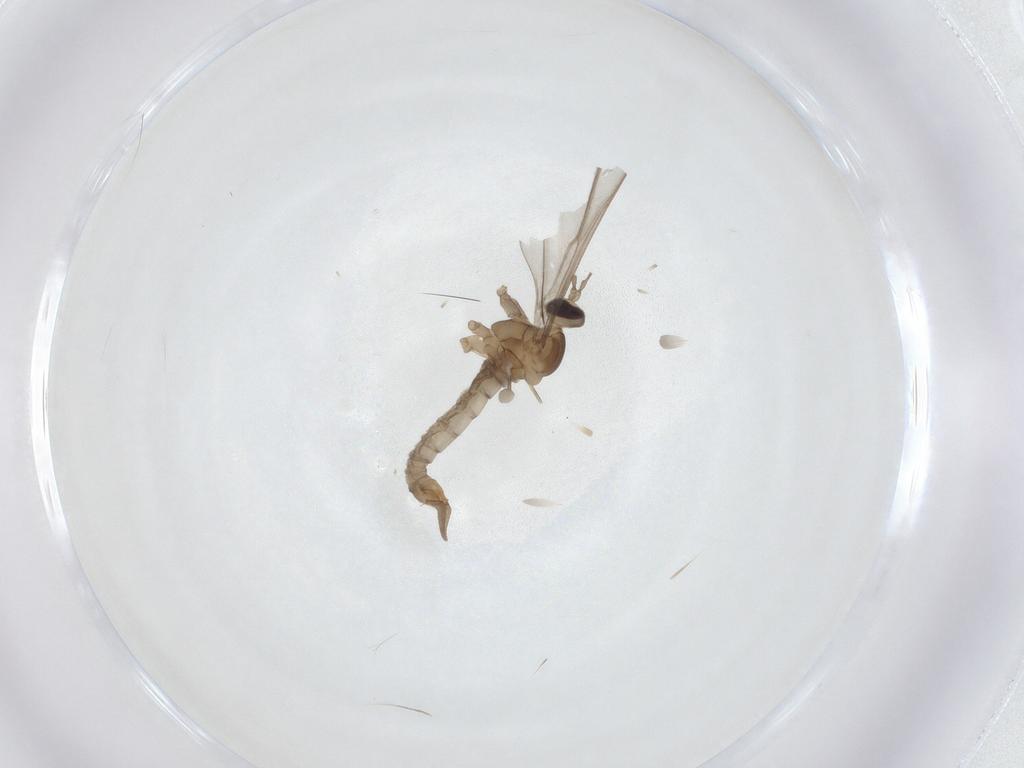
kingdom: Animalia
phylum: Arthropoda
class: Insecta
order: Diptera
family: Cecidomyiidae
